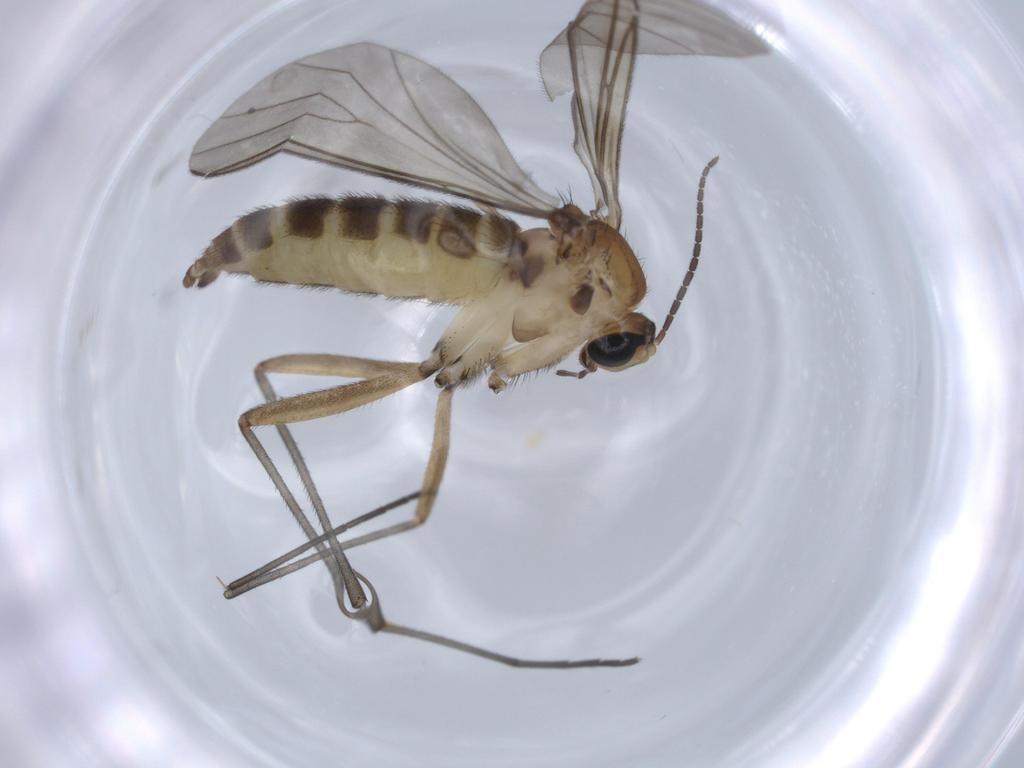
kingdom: Animalia
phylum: Arthropoda
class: Insecta
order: Diptera
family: Sciaridae
